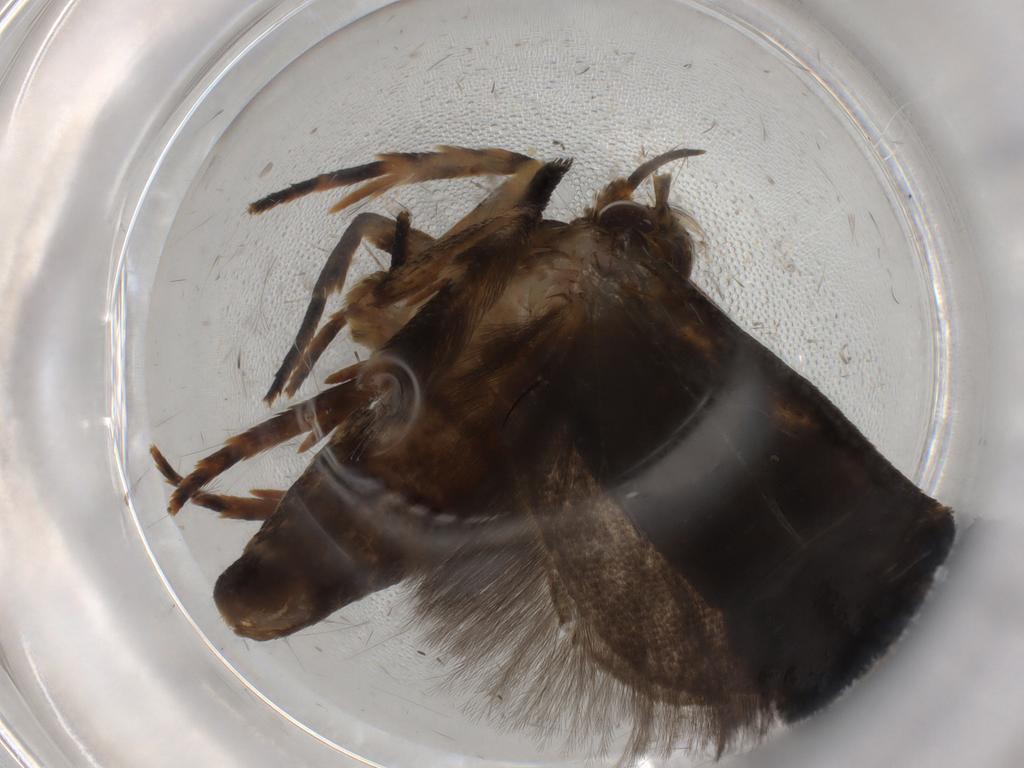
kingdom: Animalia
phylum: Arthropoda
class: Insecta
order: Lepidoptera
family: Gelechiidae
